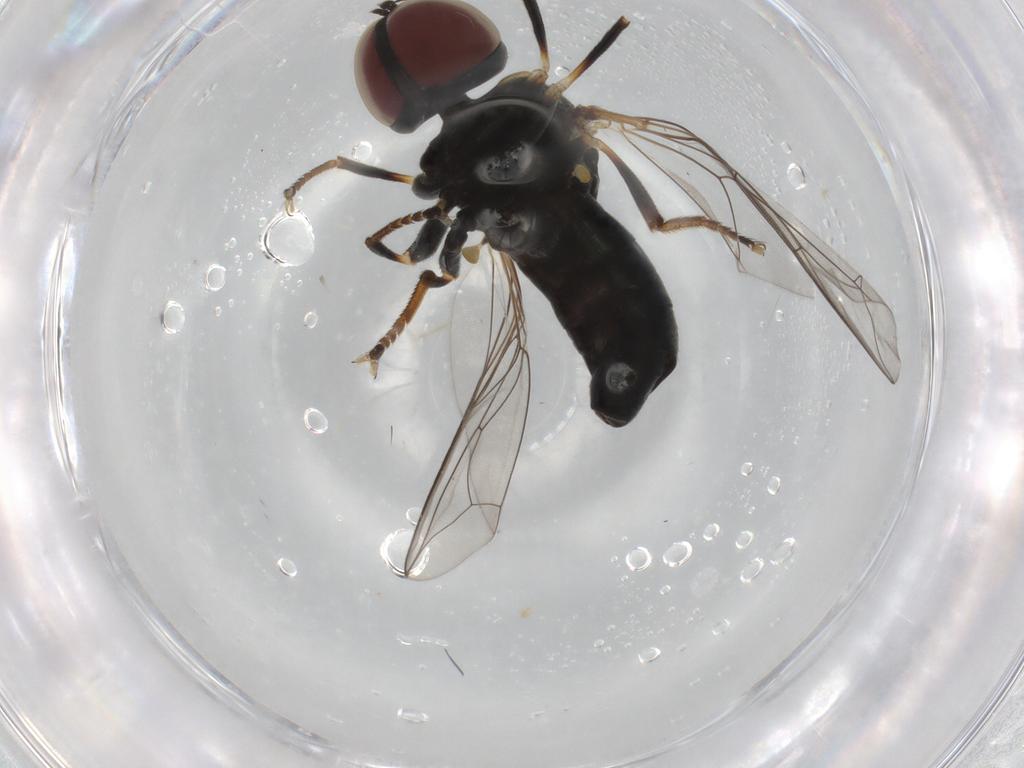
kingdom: Animalia
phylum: Arthropoda
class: Insecta
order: Diptera
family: Pipunculidae
